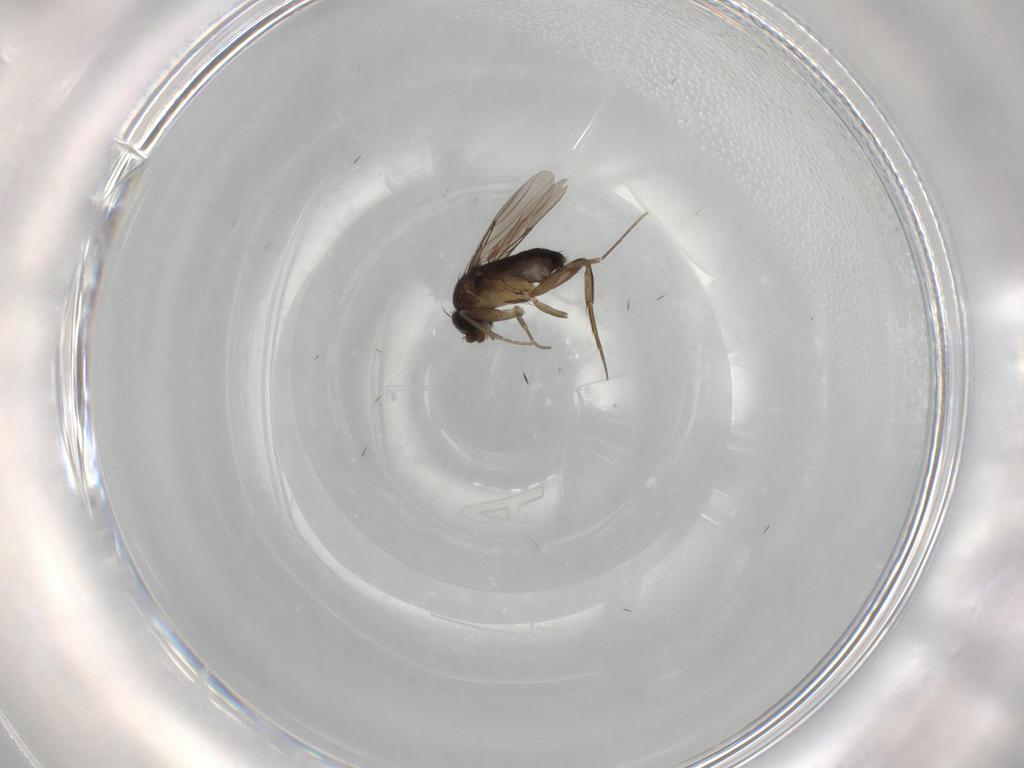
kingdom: Animalia
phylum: Arthropoda
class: Insecta
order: Diptera
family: Phoridae
